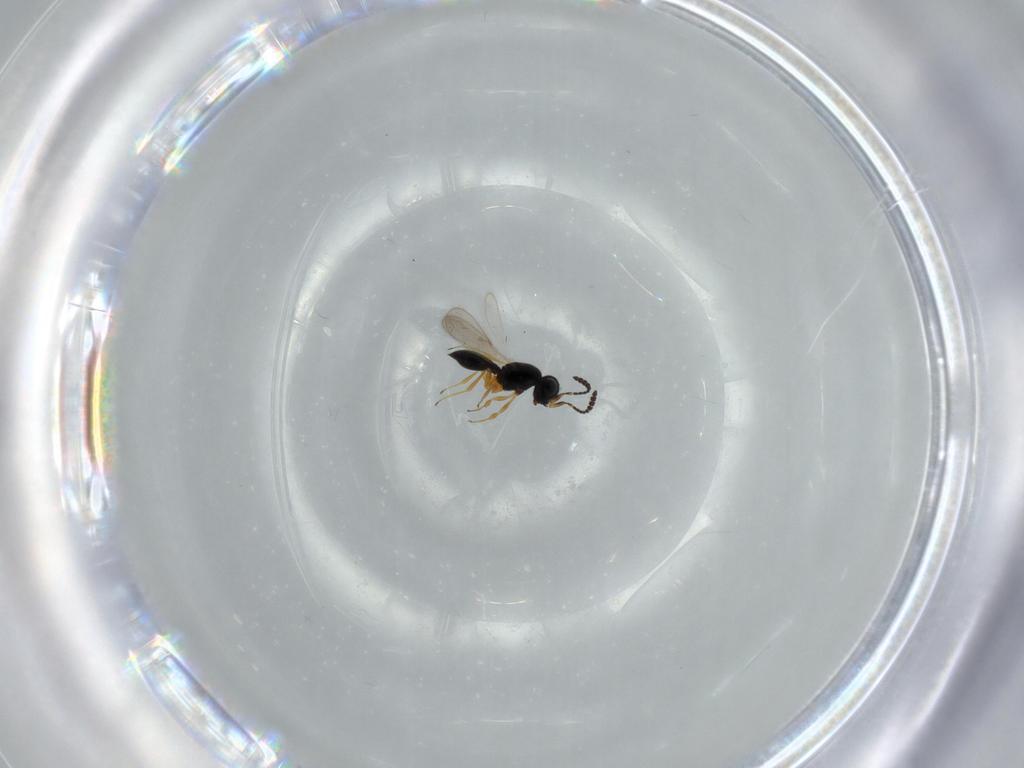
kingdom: Animalia
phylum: Arthropoda
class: Insecta
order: Hymenoptera
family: Scelionidae
